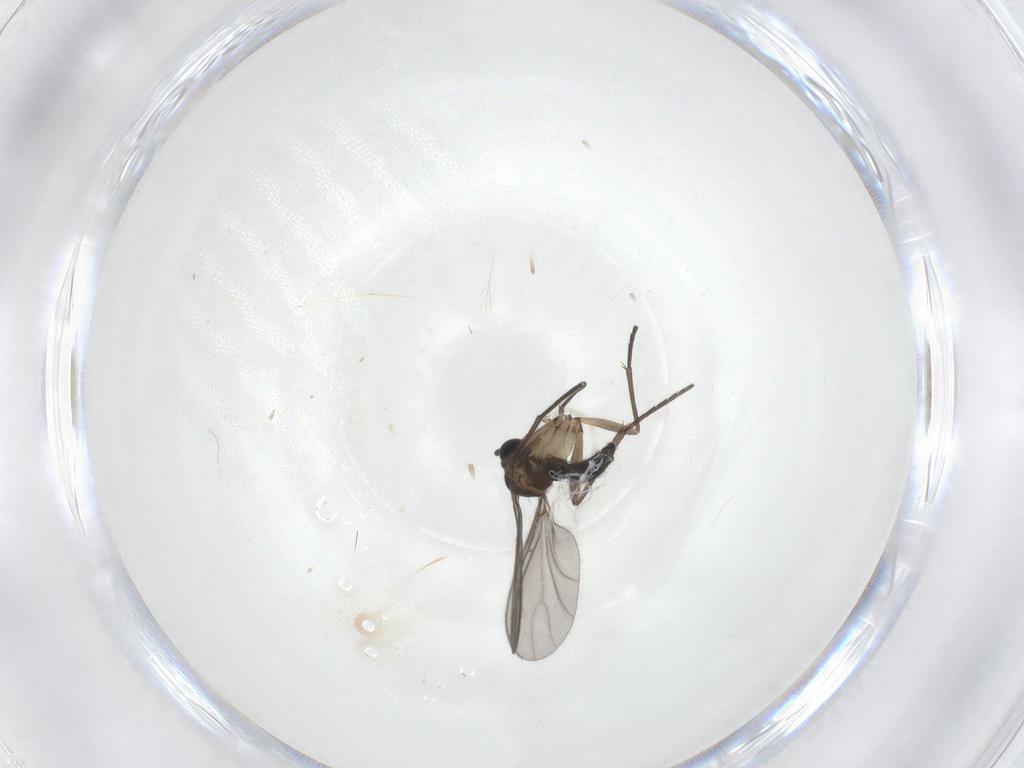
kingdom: Animalia
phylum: Arthropoda
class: Insecta
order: Diptera
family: Sciaridae
